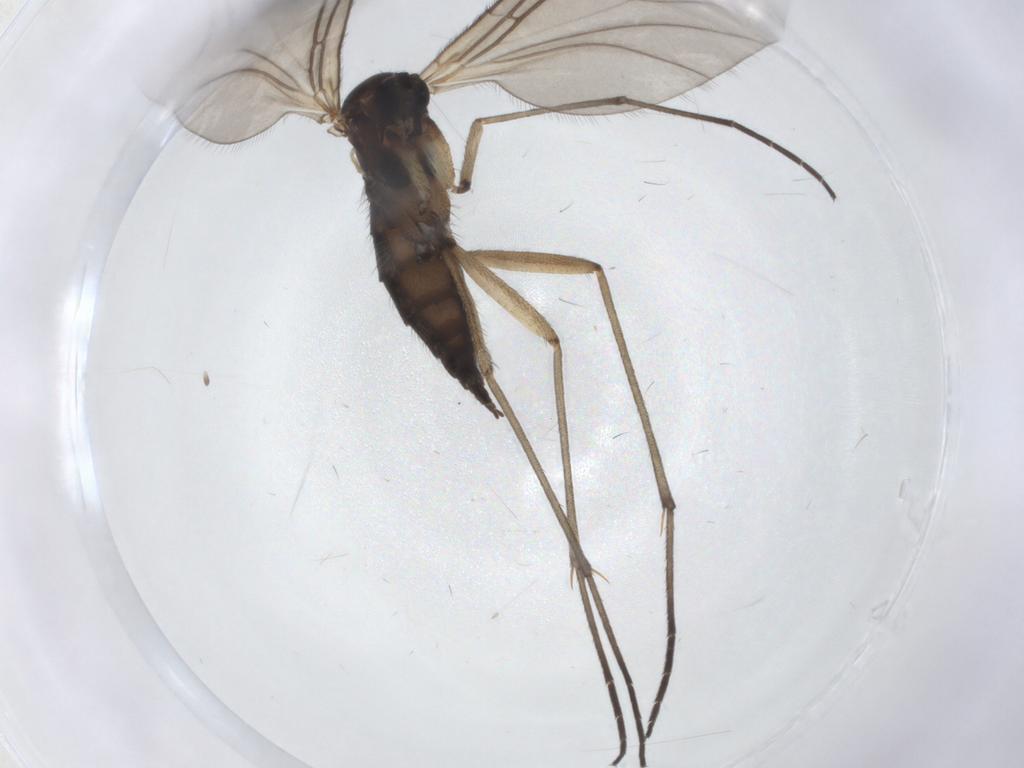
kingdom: Animalia
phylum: Arthropoda
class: Insecta
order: Diptera
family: Sciaridae
